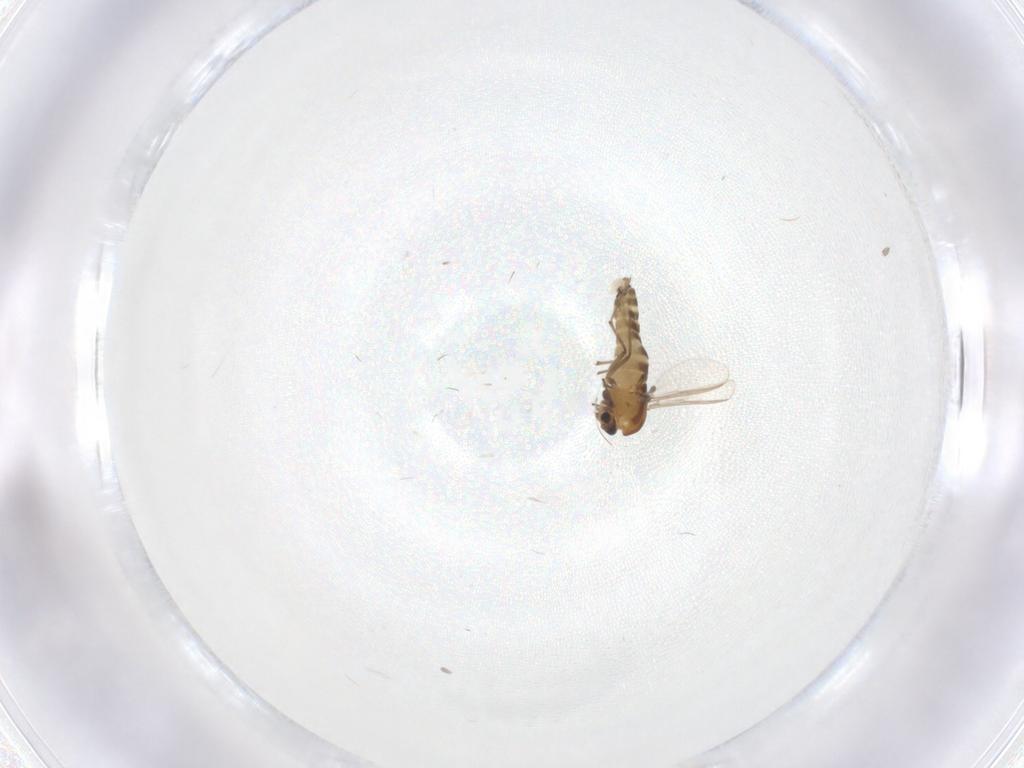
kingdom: Animalia
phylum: Arthropoda
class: Insecta
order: Diptera
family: Chironomidae
